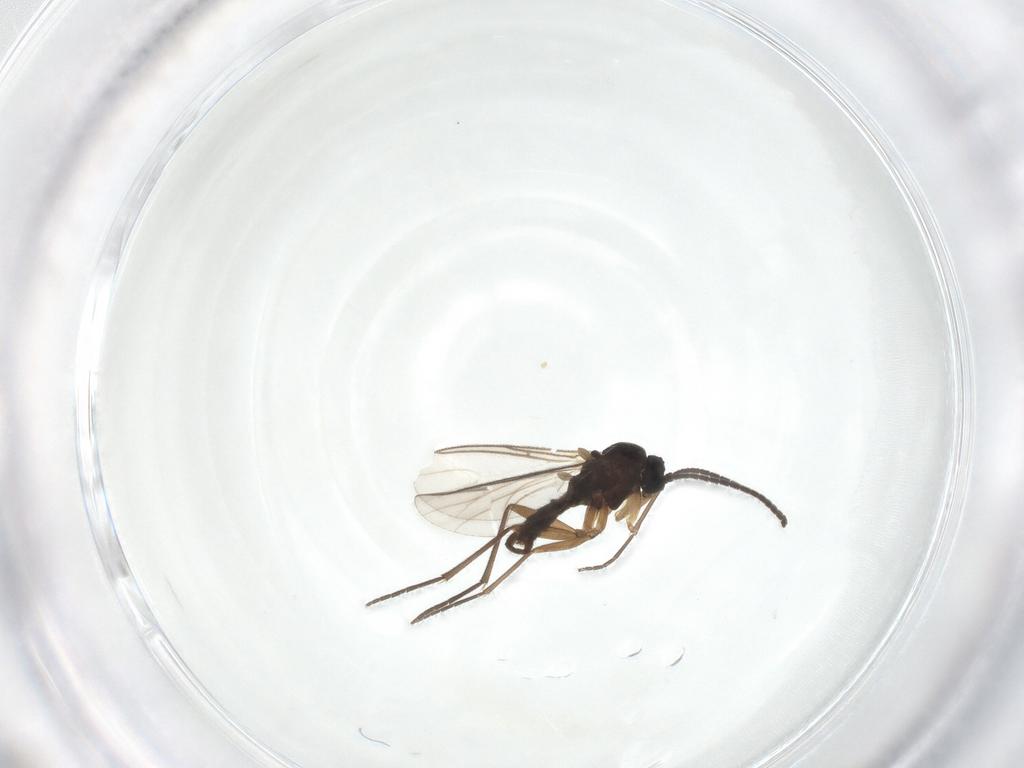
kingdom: Animalia
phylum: Arthropoda
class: Insecta
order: Diptera
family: Sciaridae
